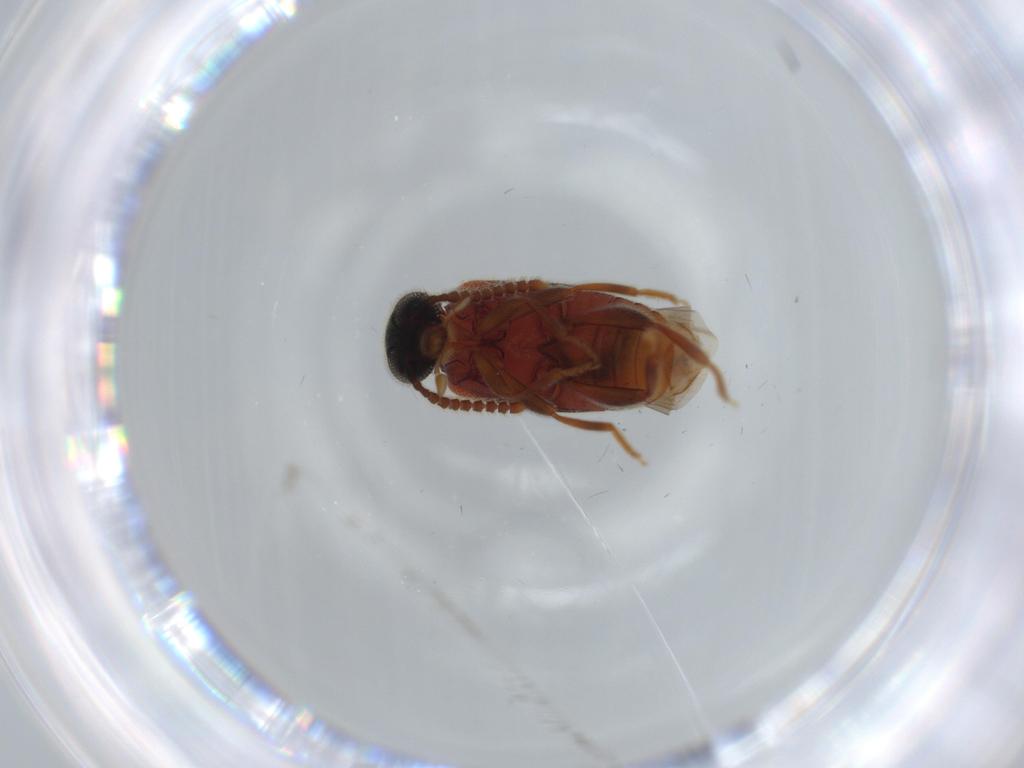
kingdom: Animalia
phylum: Arthropoda
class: Insecta
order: Coleoptera
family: Aderidae
